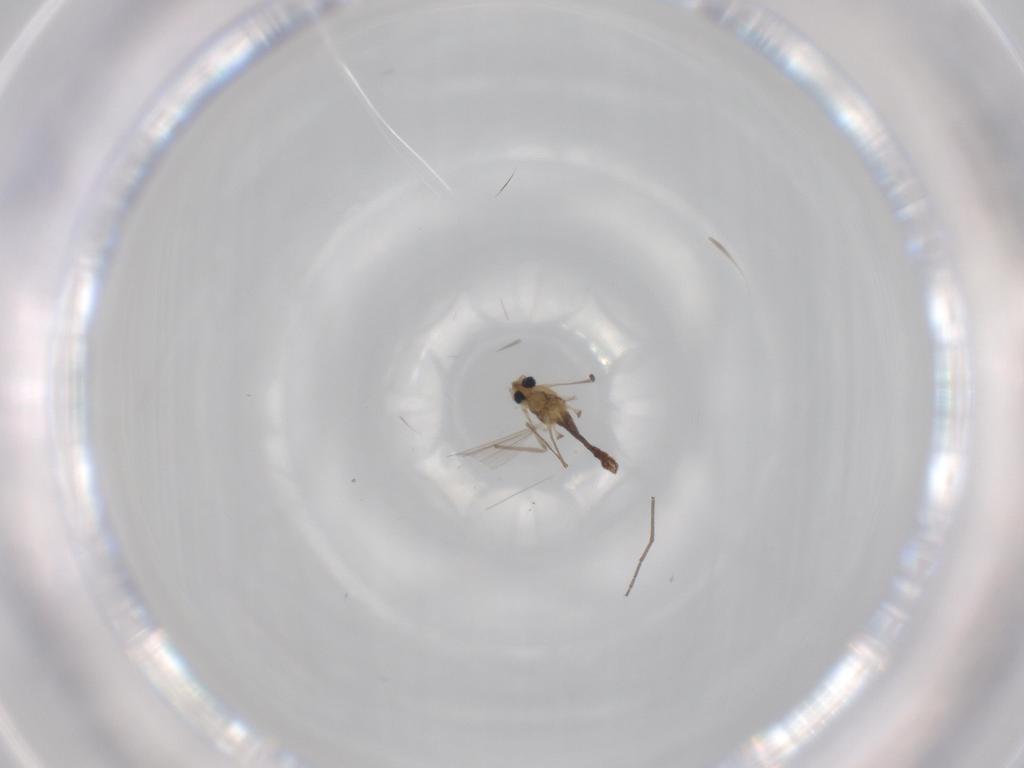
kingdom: Animalia
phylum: Arthropoda
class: Insecta
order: Diptera
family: Chironomidae
